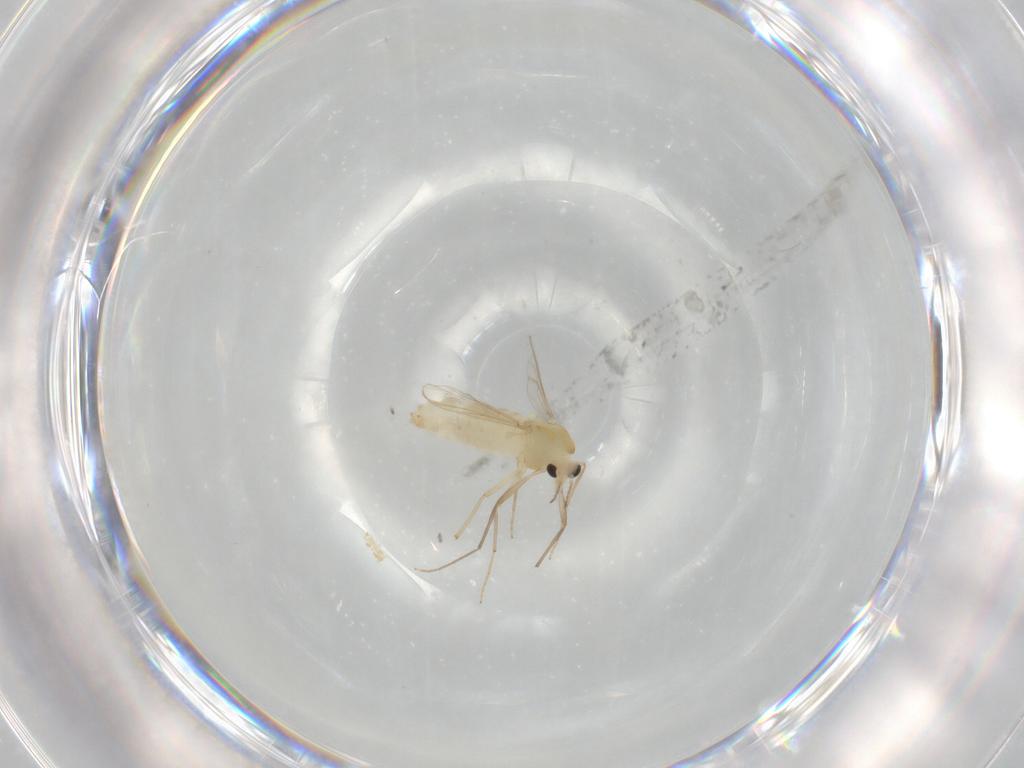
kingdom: Animalia
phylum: Arthropoda
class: Insecta
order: Diptera
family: Chironomidae
